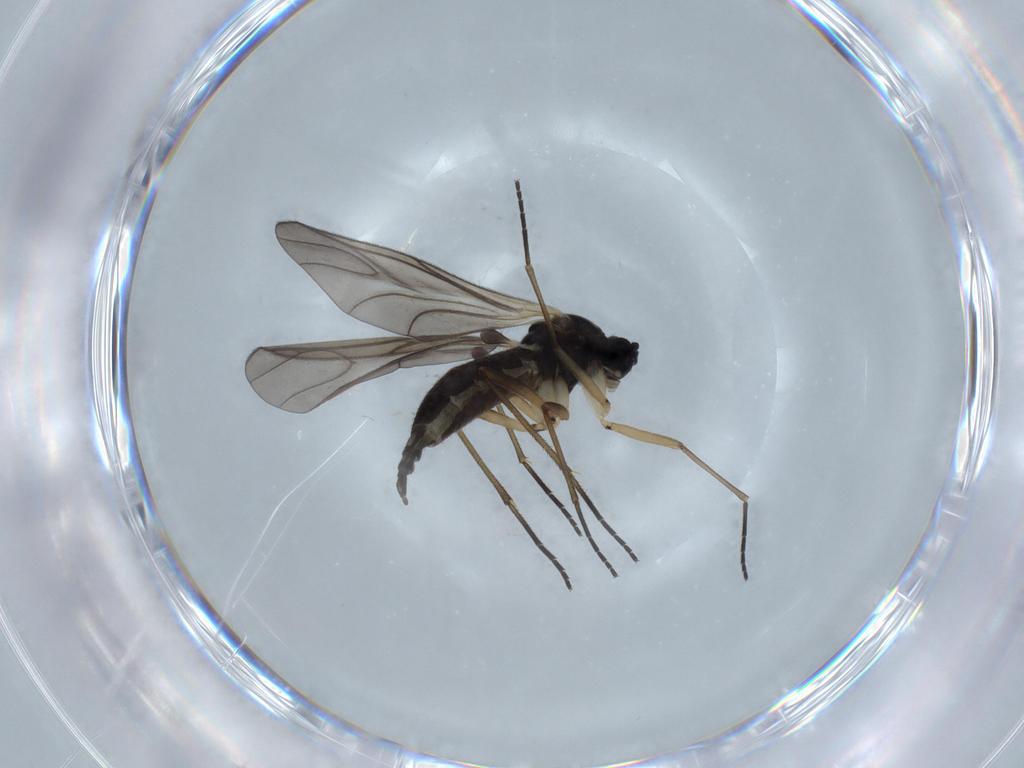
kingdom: Animalia
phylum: Arthropoda
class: Insecta
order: Diptera
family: Sciaridae
